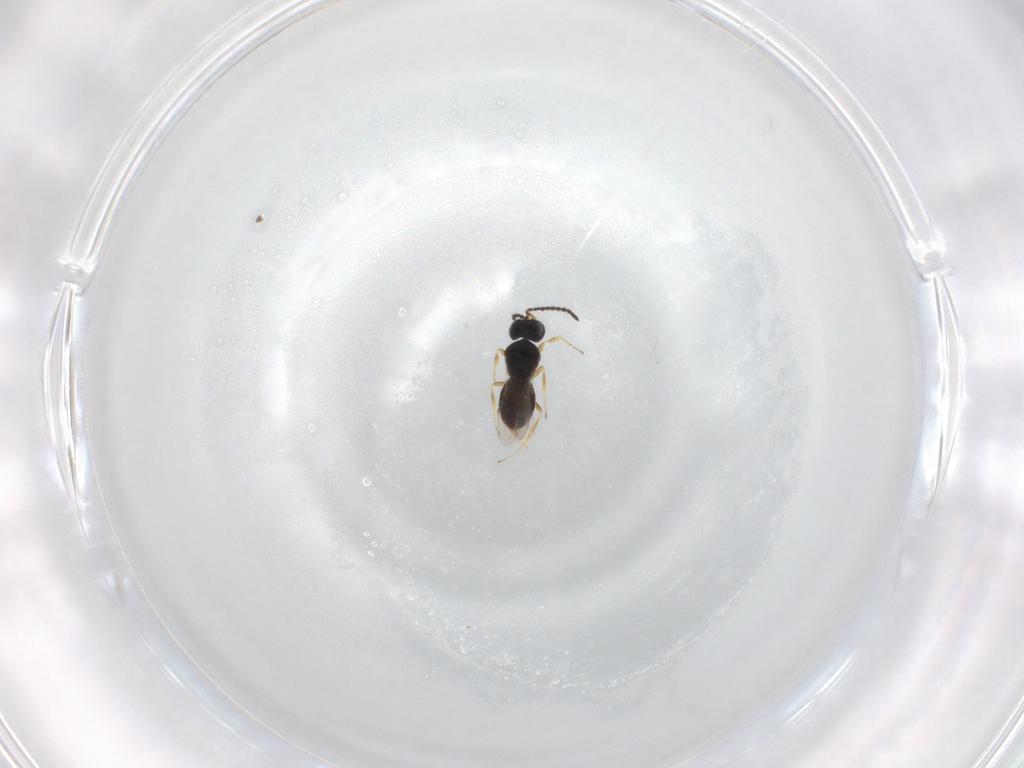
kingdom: Animalia
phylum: Arthropoda
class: Insecta
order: Hymenoptera
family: Scelionidae
